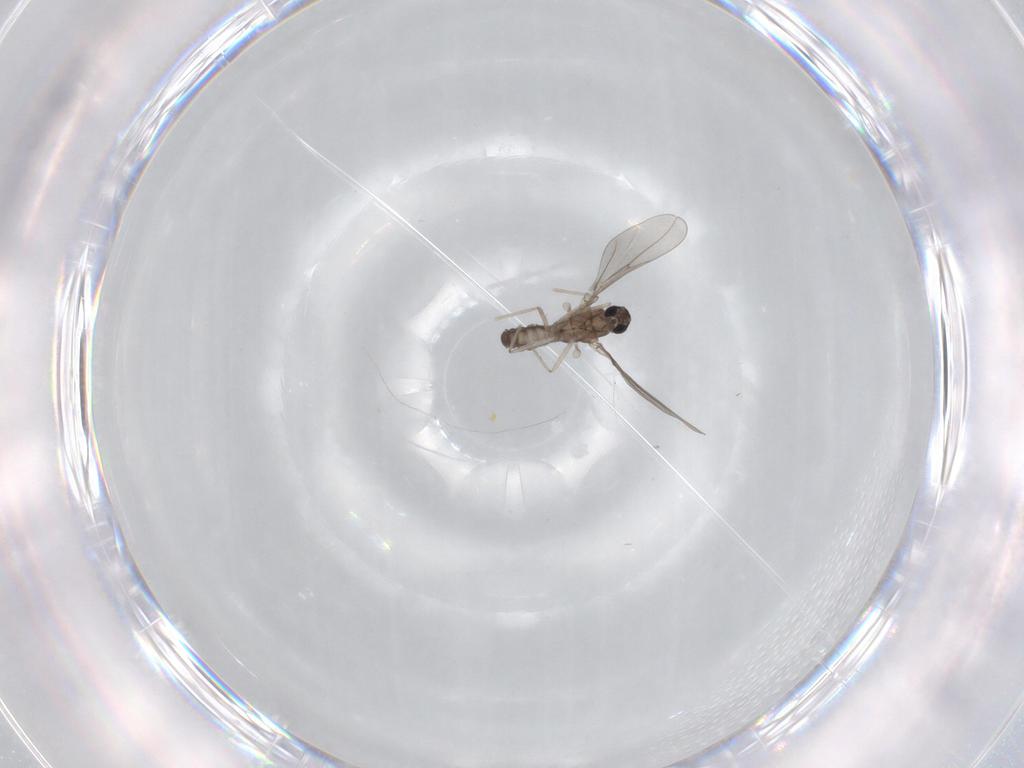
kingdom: Animalia
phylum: Arthropoda
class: Insecta
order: Diptera
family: Cecidomyiidae
